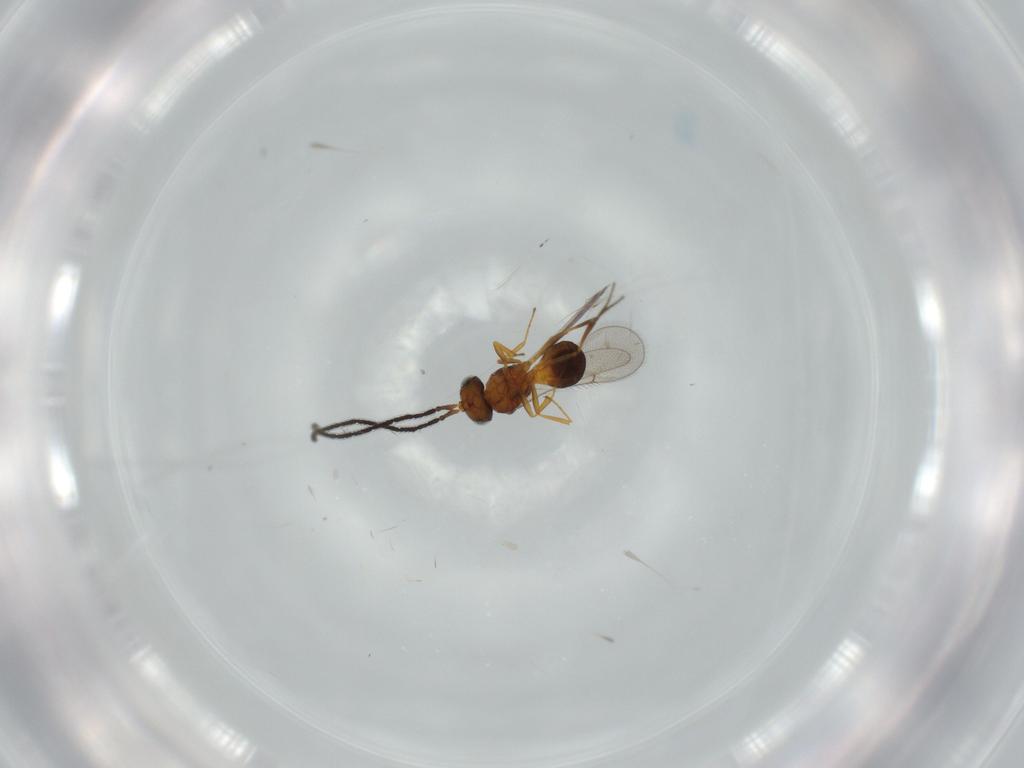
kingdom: Animalia
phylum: Arthropoda
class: Insecta
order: Hymenoptera
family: Scelionidae
